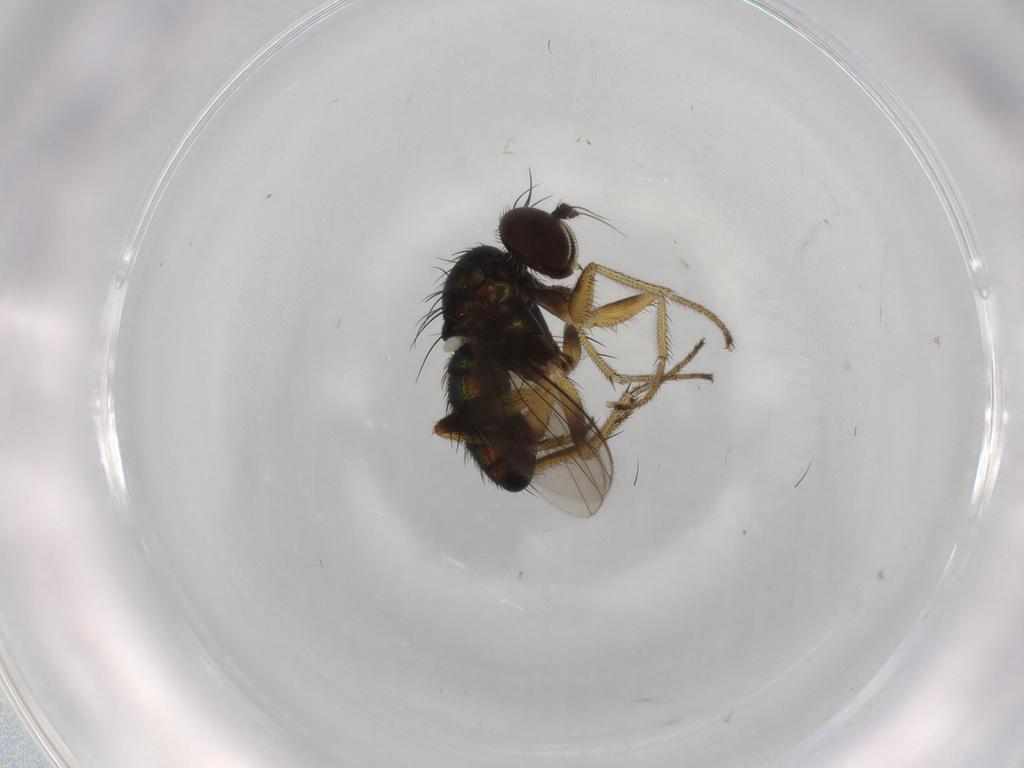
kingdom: Animalia
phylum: Arthropoda
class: Insecta
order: Diptera
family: Dolichopodidae
